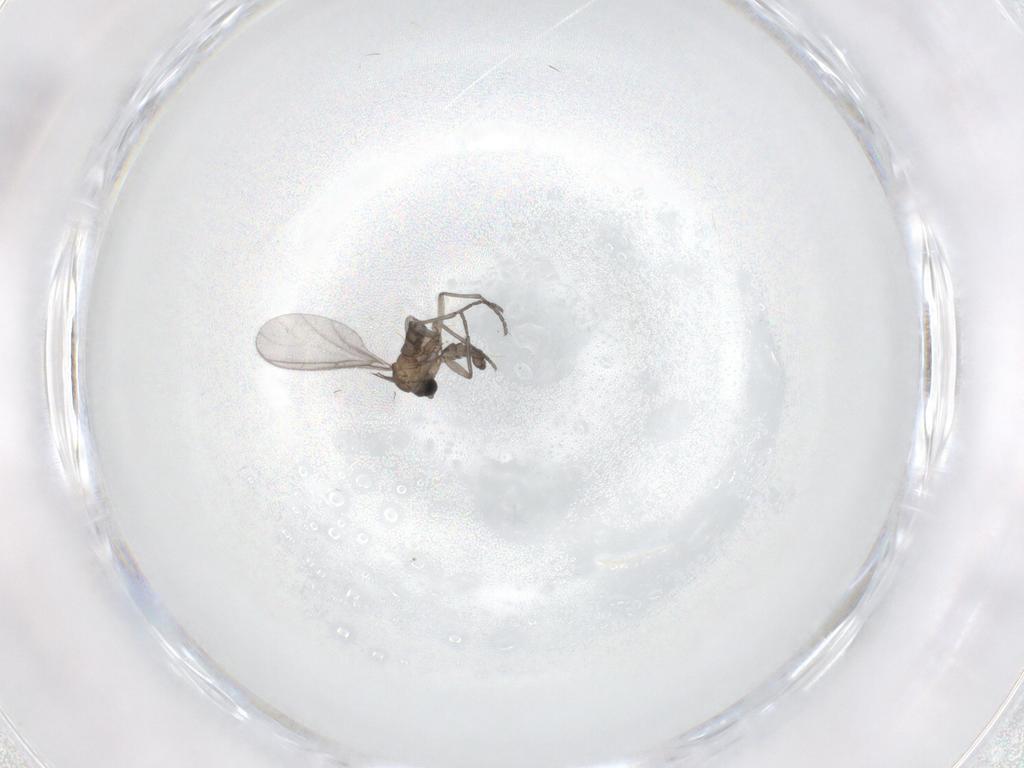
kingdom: Animalia
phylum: Arthropoda
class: Insecta
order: Diptera
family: Sciaridae
